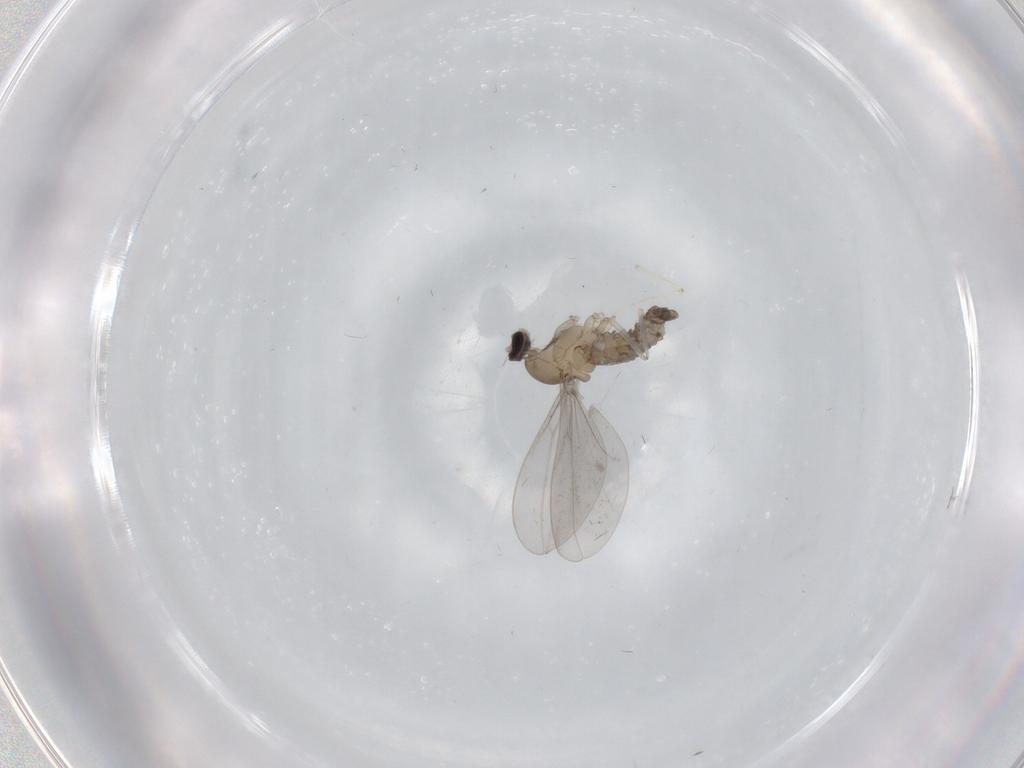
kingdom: Animalia
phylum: Arthropoda
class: Insecta
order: Diptera
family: Cecidomyiidae
